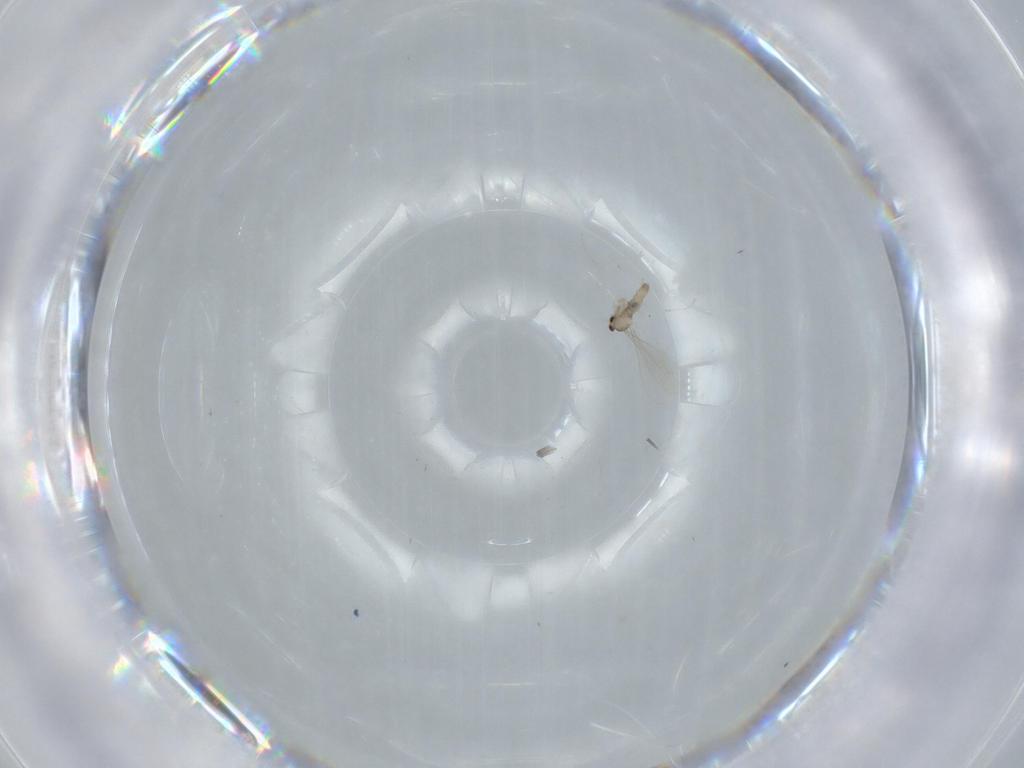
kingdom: Animalia
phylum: Arthropoda
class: Insecta
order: Diptera
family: Cecidomyiidae
